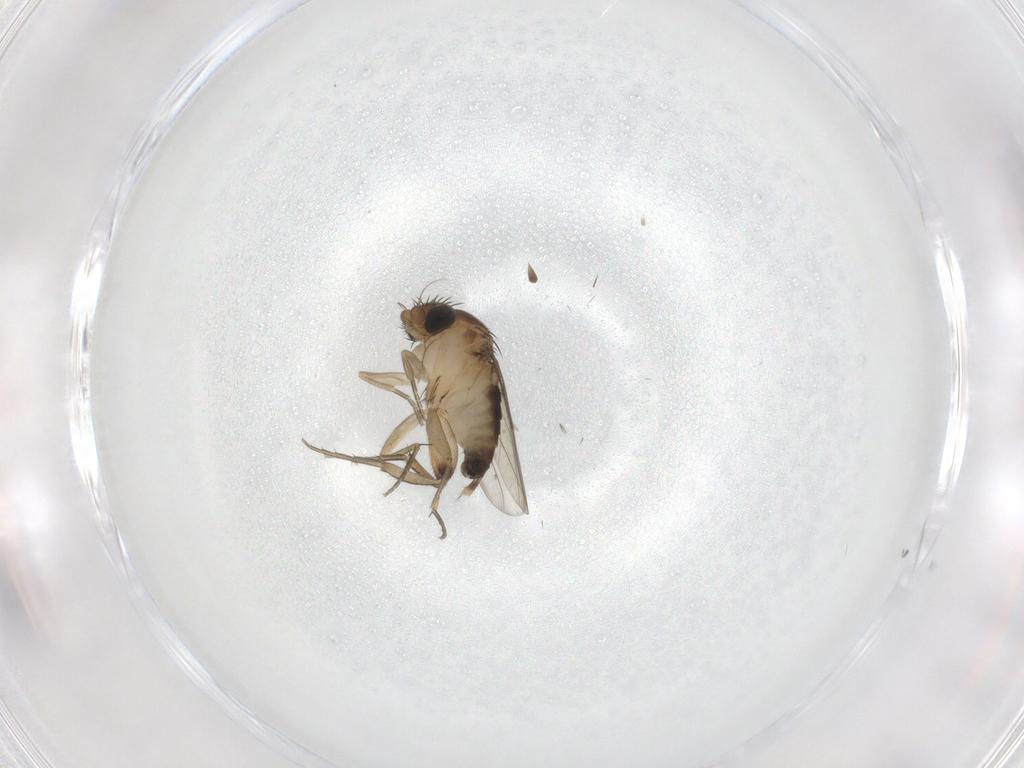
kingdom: Animalia
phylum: Arthropoda
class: Insecta
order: Diptera
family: Phoridae
